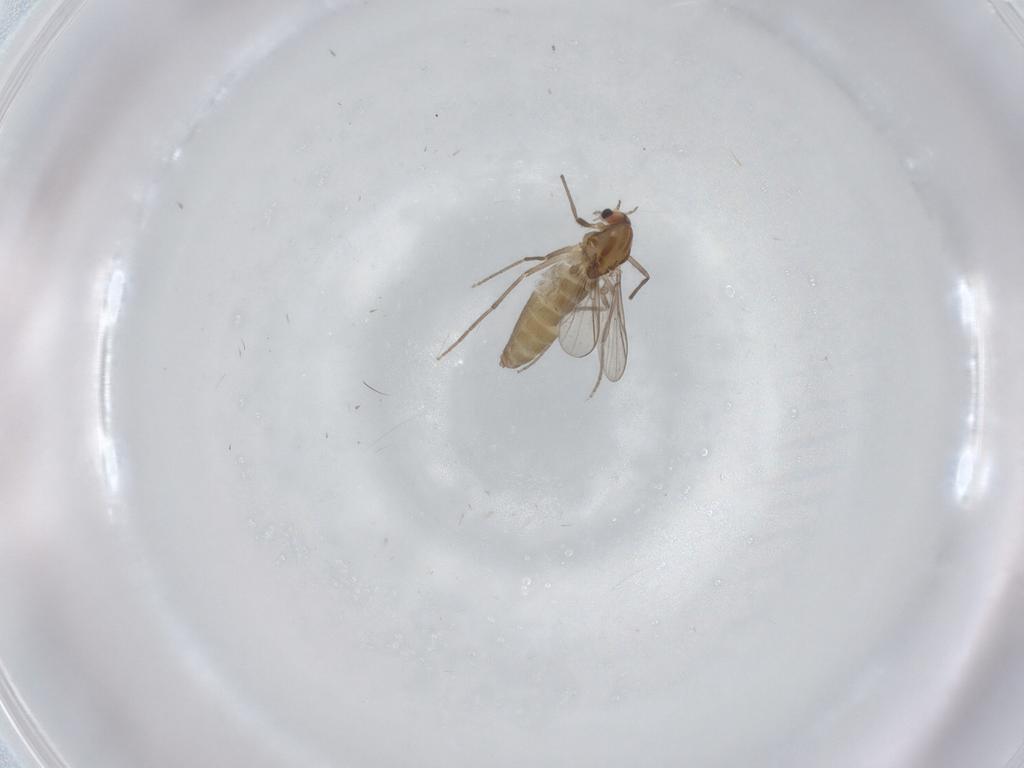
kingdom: Animalia
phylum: Arthropoda
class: Insecta
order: Diptera
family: Chironomidae
